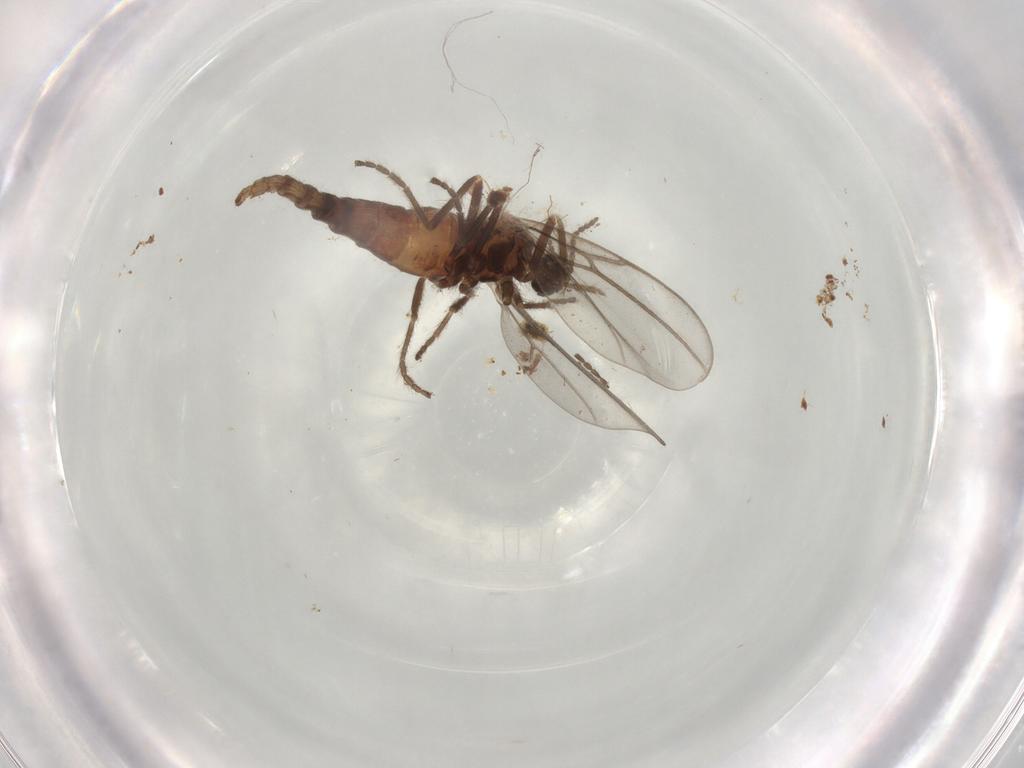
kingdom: Animalia
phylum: Arthropoda
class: Insecta
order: Diptera
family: Cecidomyiidae
